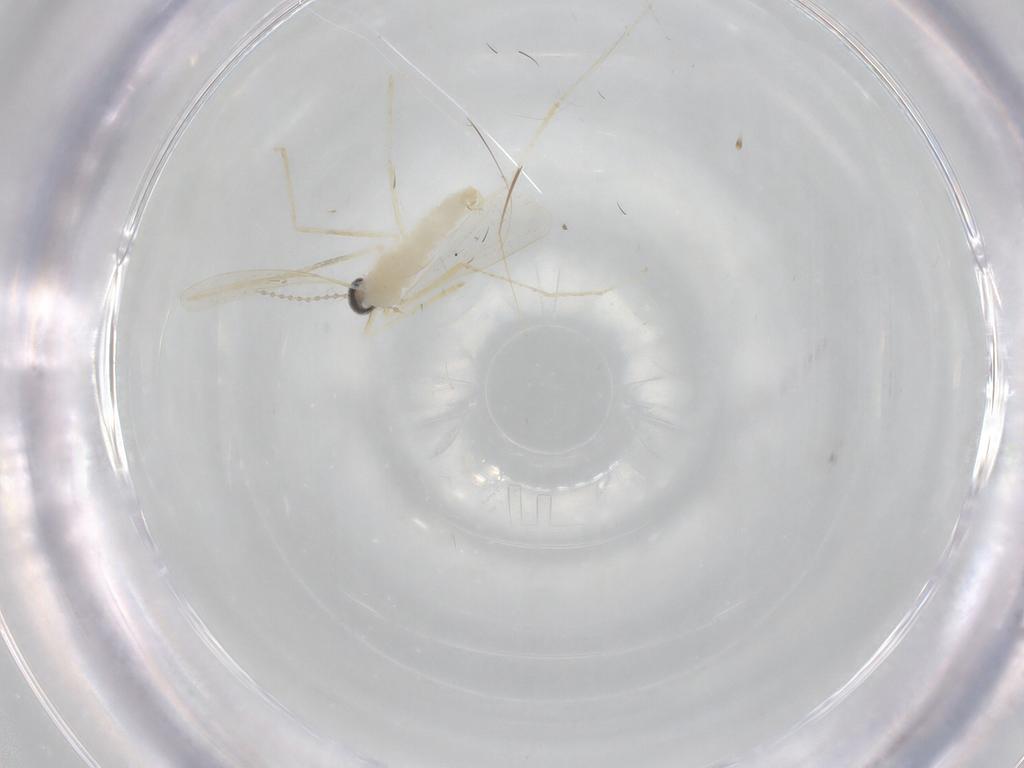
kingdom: Animalia
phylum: Arthropoda
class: Insecta
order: Diptera
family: Cecidomyiidae
